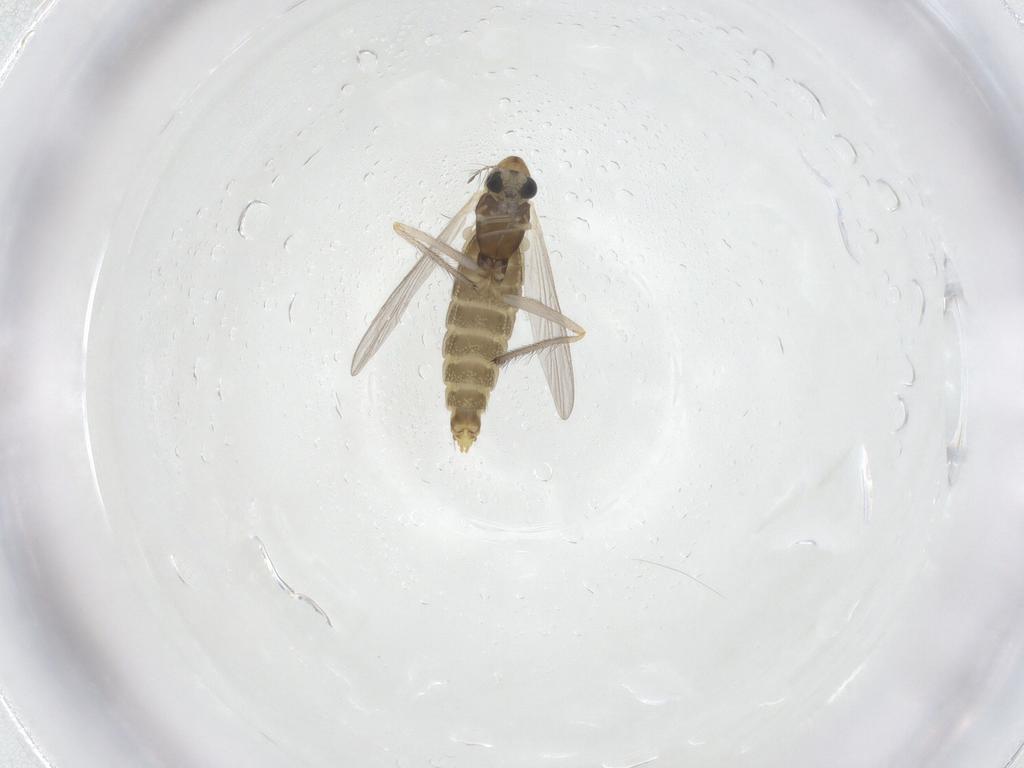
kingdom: Animalia
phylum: Arthropoda
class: Insecta
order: Diptera
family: Chironomidae
